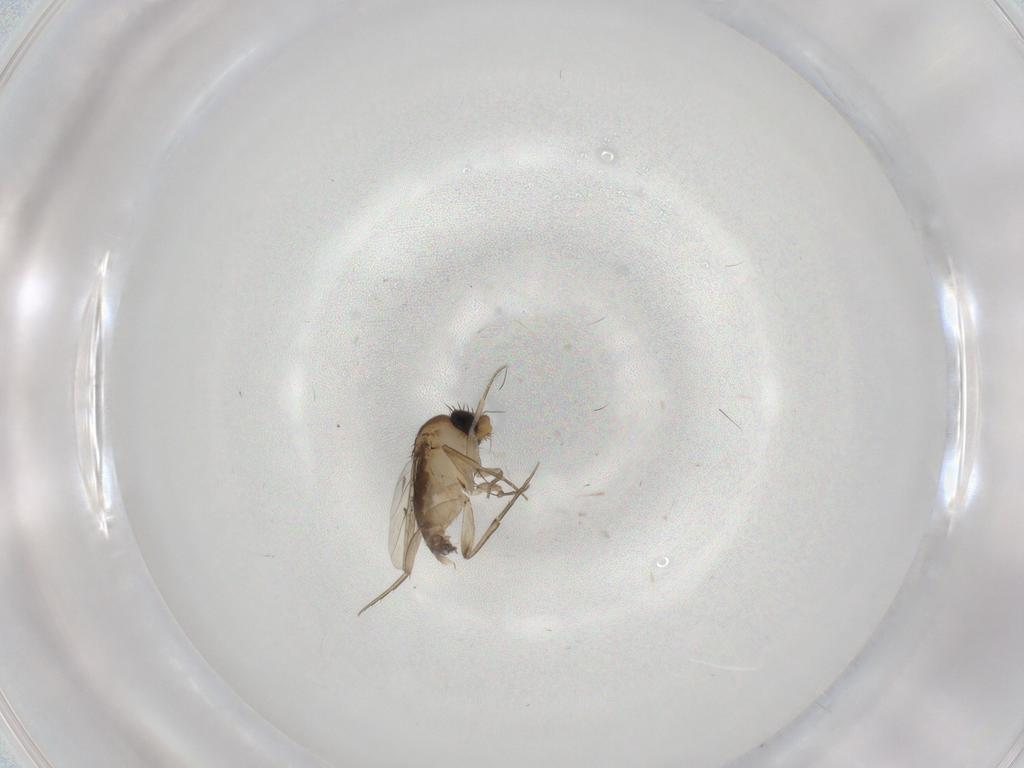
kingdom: Animalia
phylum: Arthropoda
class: Insecta
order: Diptera
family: Phoridae
